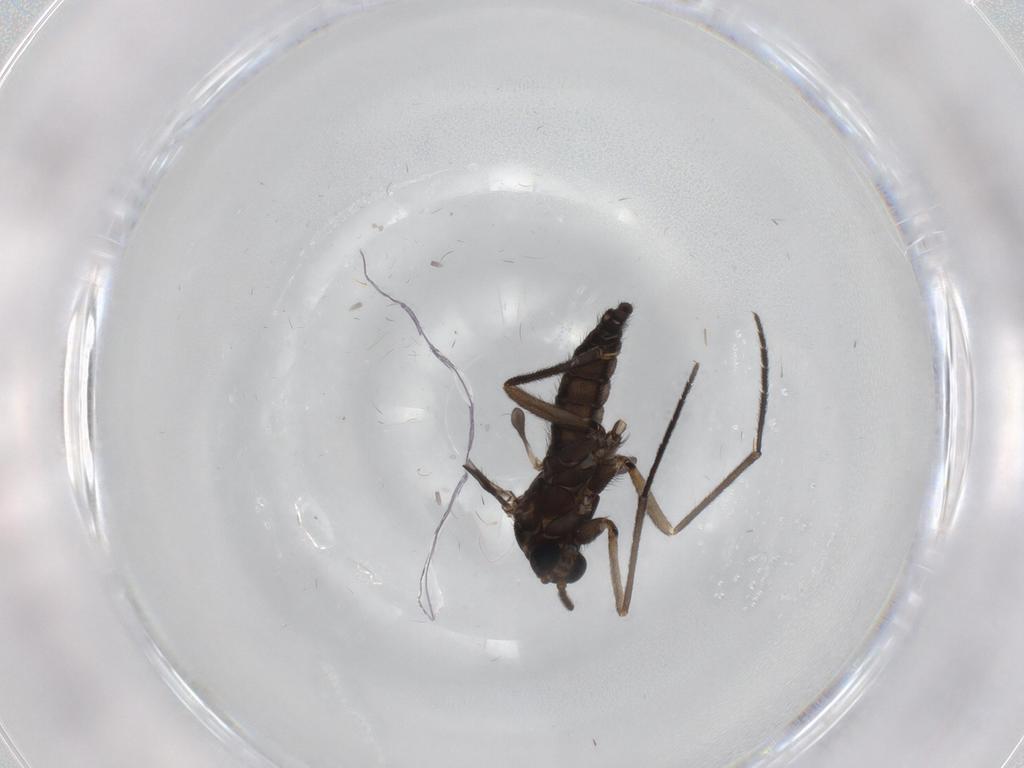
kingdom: Animalia
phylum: Arthropoda
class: Insecta
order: Diptera
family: Sciaridae
